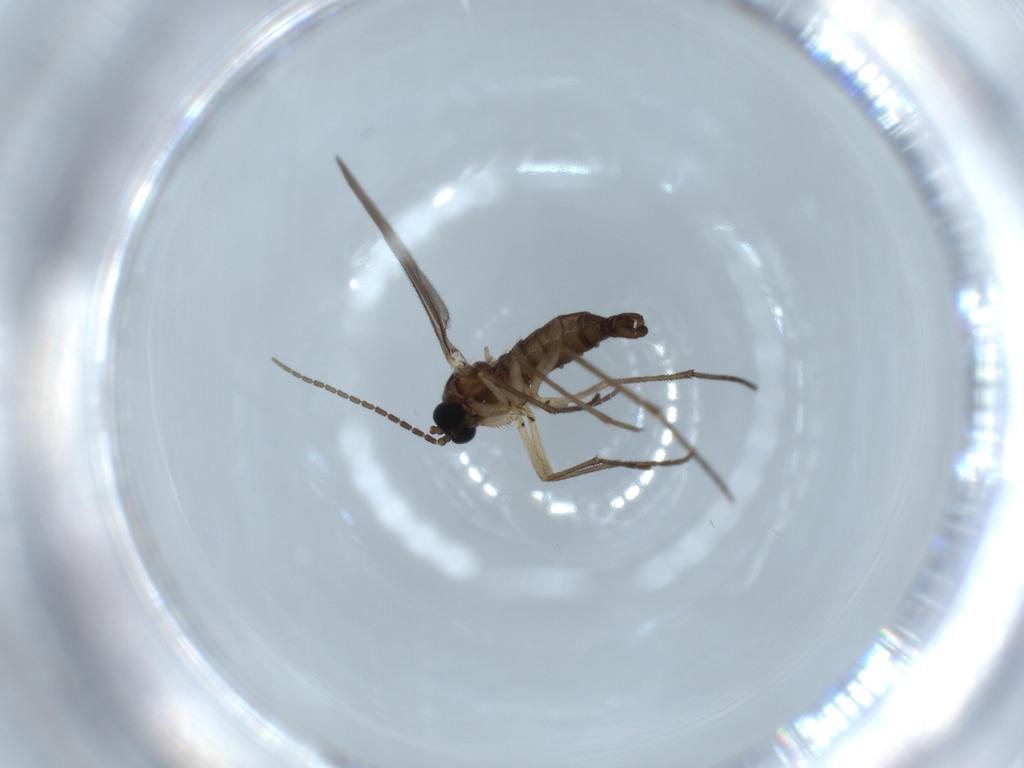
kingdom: Animalia
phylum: Arthropoda
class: Insecta
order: Diptera
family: Sciaridae
